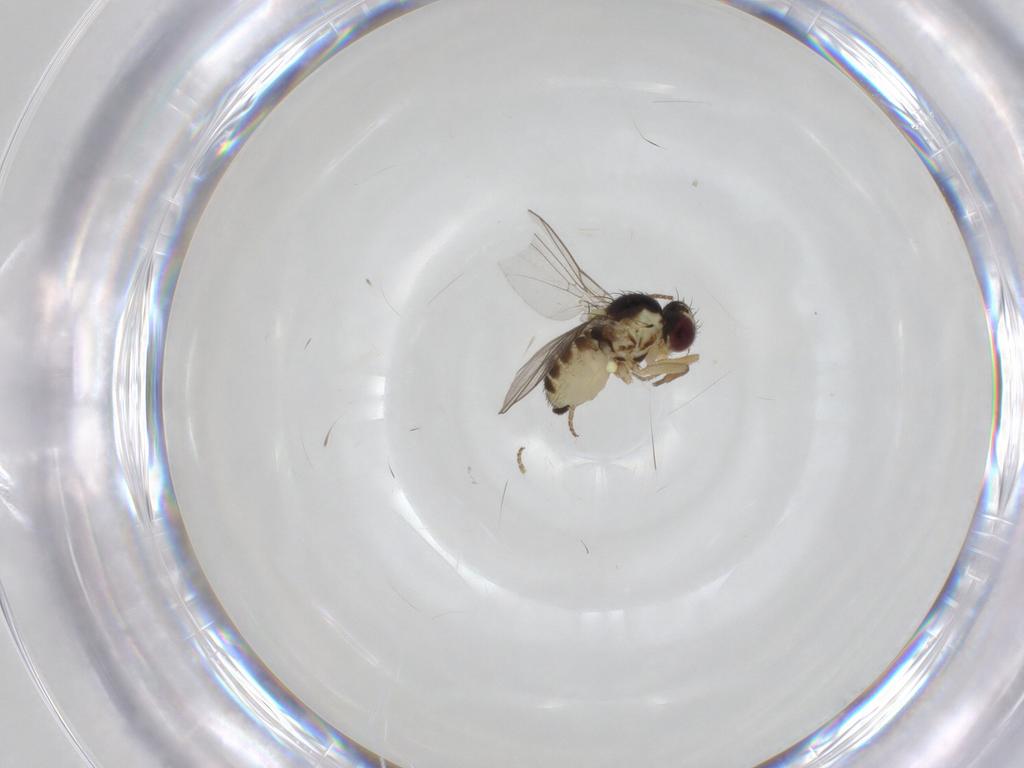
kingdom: Animalia
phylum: Arthropoda
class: Insecta
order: Diptera
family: Agromyzidae
